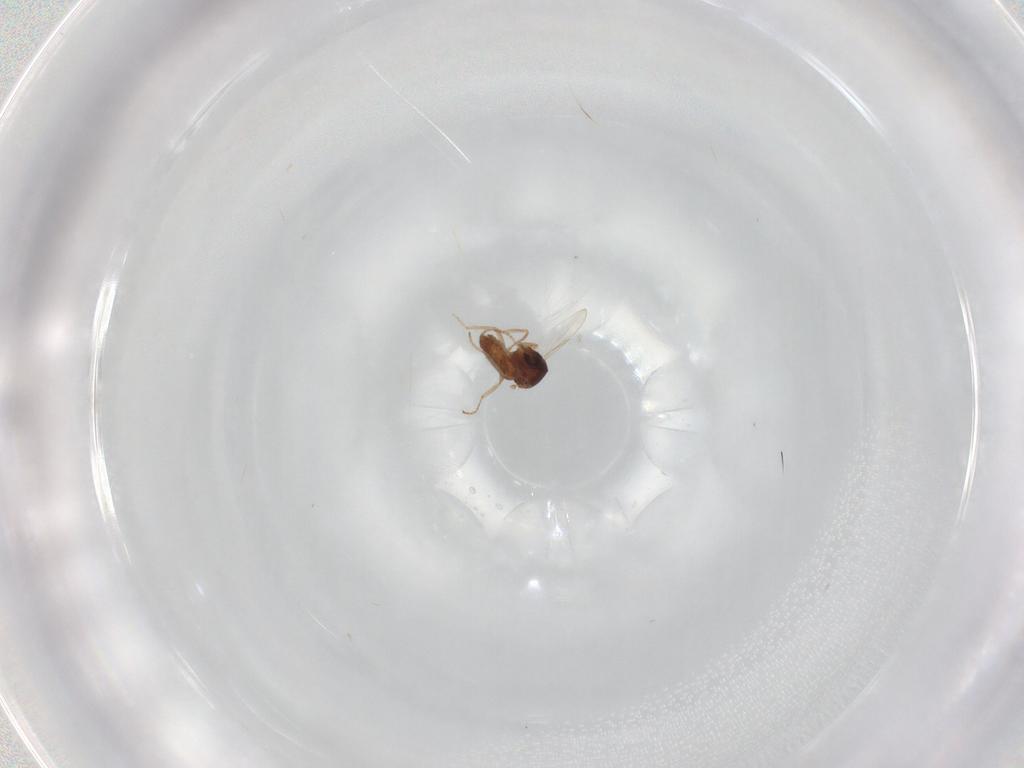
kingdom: Animalia
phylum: Arthropoda
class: Insecta
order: Diptera
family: Ceratopogonidae
